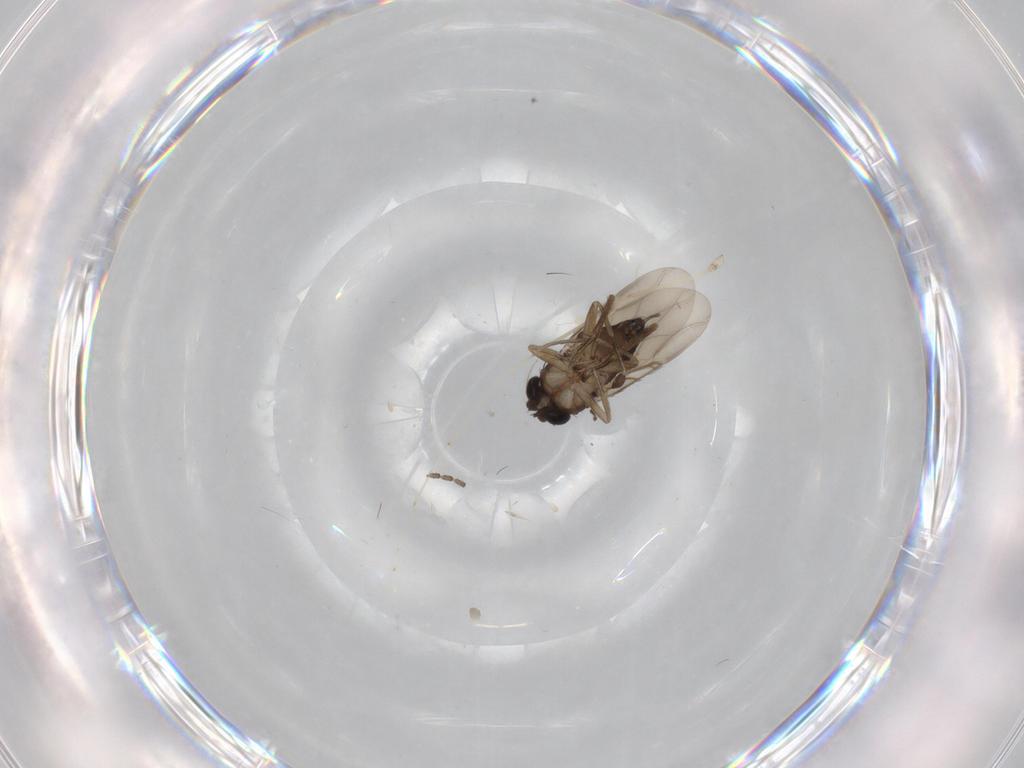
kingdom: Animalia
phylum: Arthropoda
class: Insecta
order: Diptera
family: Phoridae
